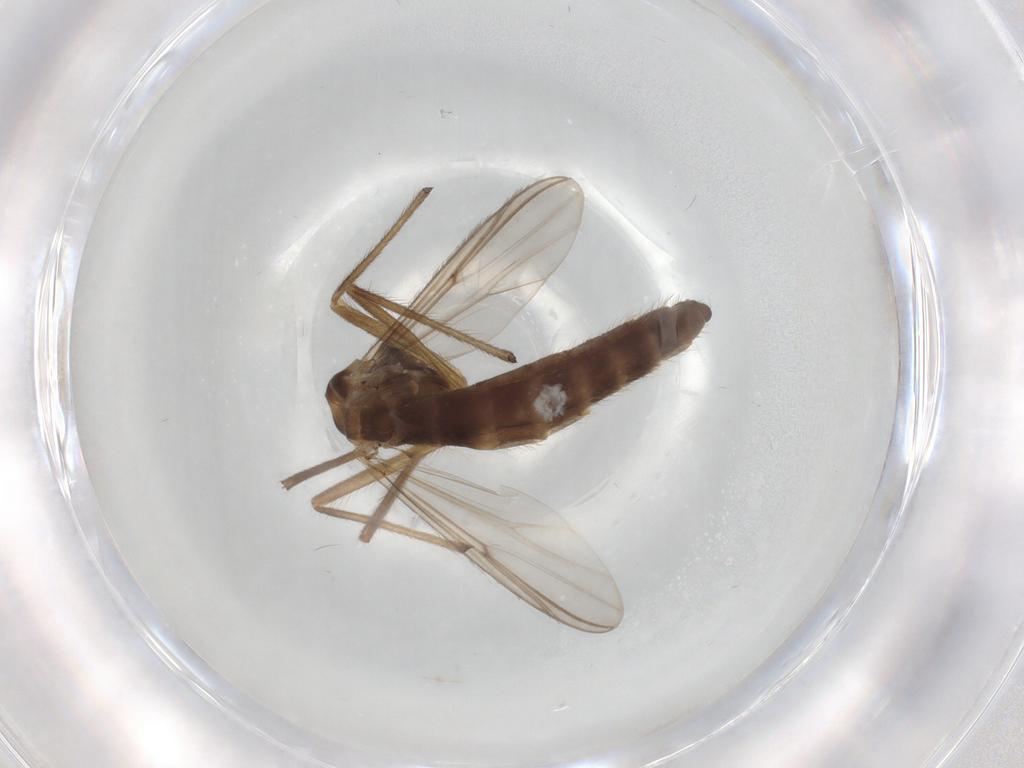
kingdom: Animalia
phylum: Arthropoda
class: Insecta
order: Diptera
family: Chironomidae
